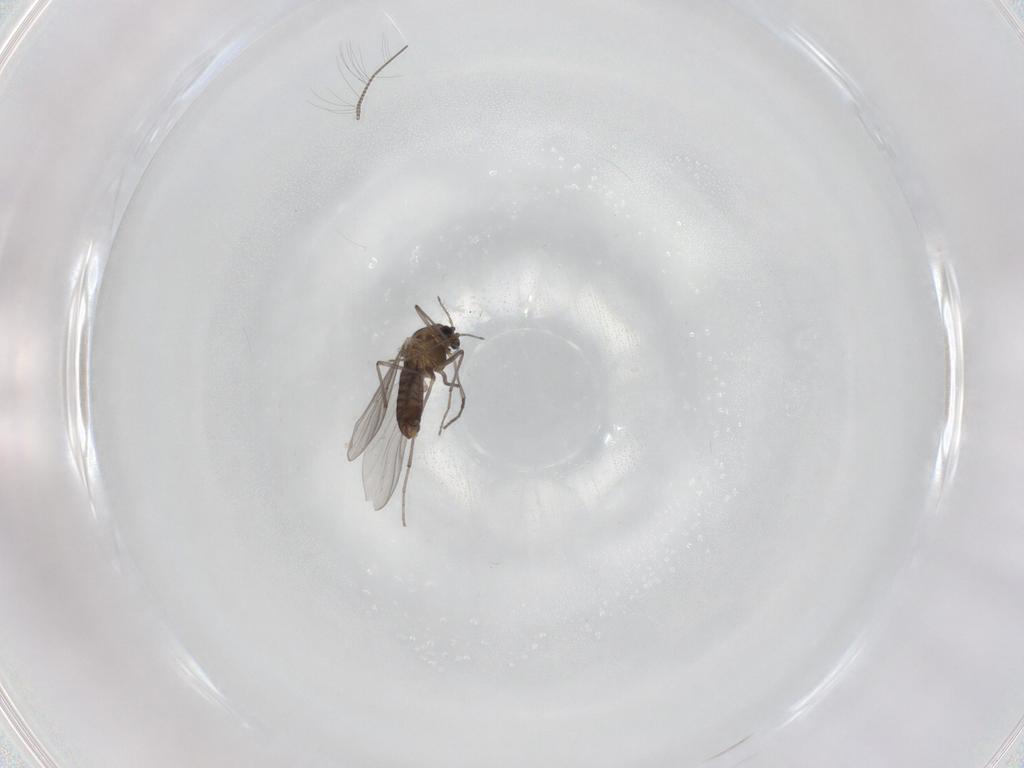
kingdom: Animalia
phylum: Arthropoda
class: Insecta
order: Diptera
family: Chironomidae
